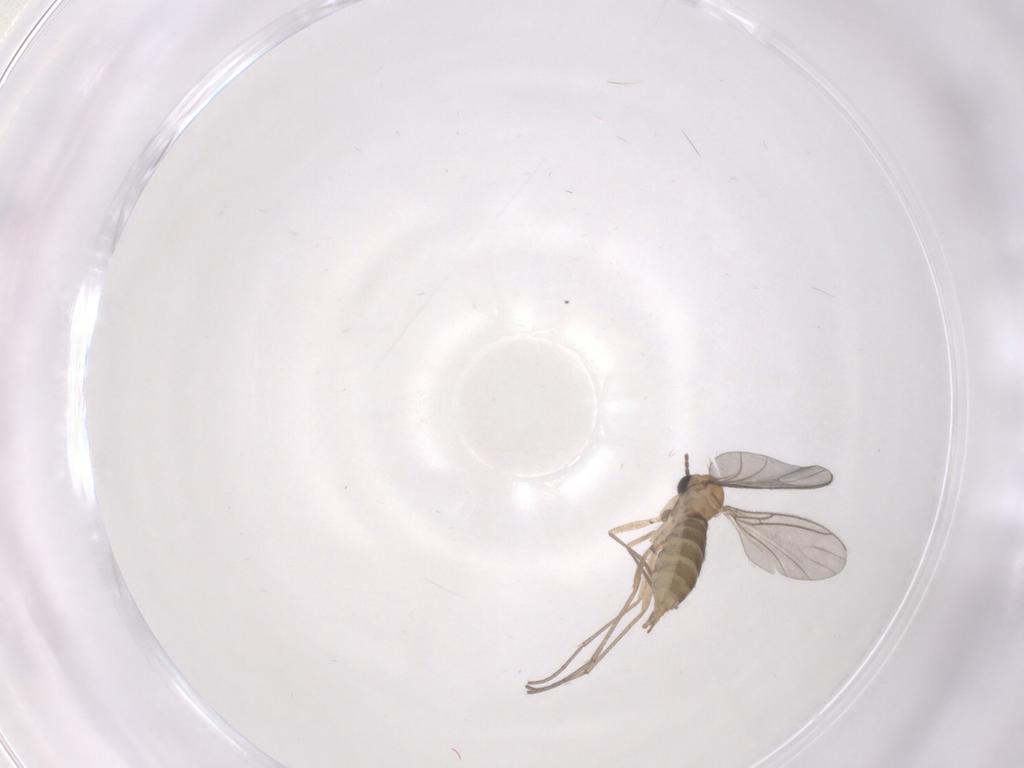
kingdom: Animalia
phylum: Arthropoda
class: Insecta
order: Diptera
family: Sciaridae
